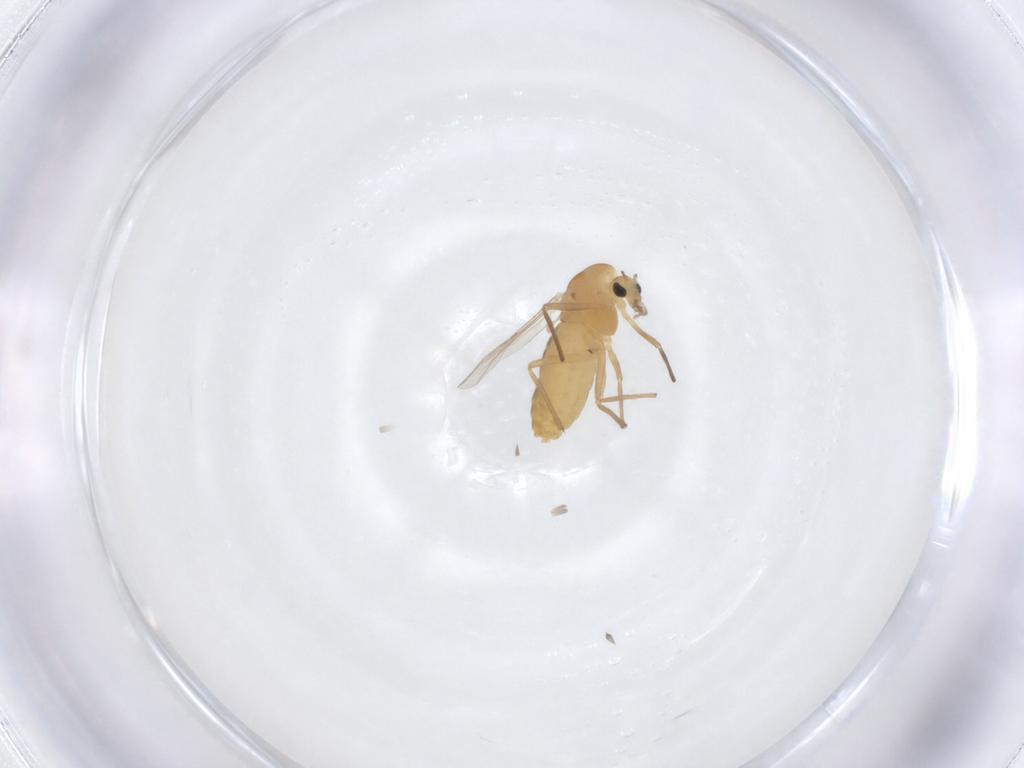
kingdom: Animalia
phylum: Arthropoda
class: Insecta
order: Diptera
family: Chironomidae
